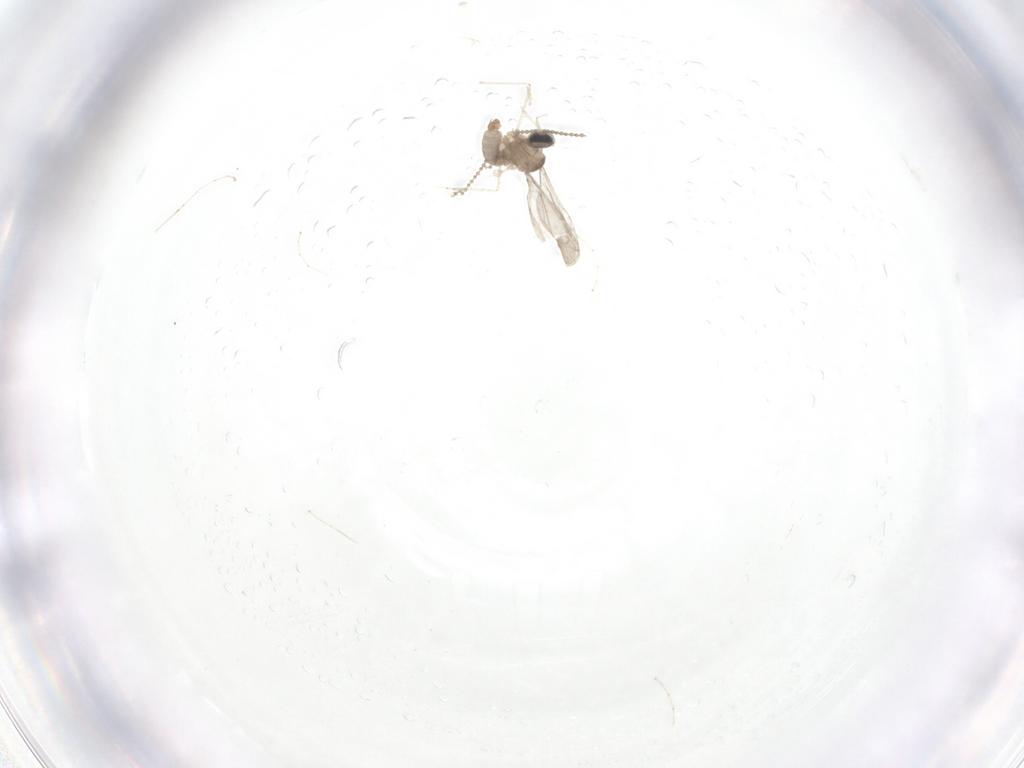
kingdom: Animalia
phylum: Arthropoda
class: Insecta
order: Diptera
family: Cecidomyiidae
